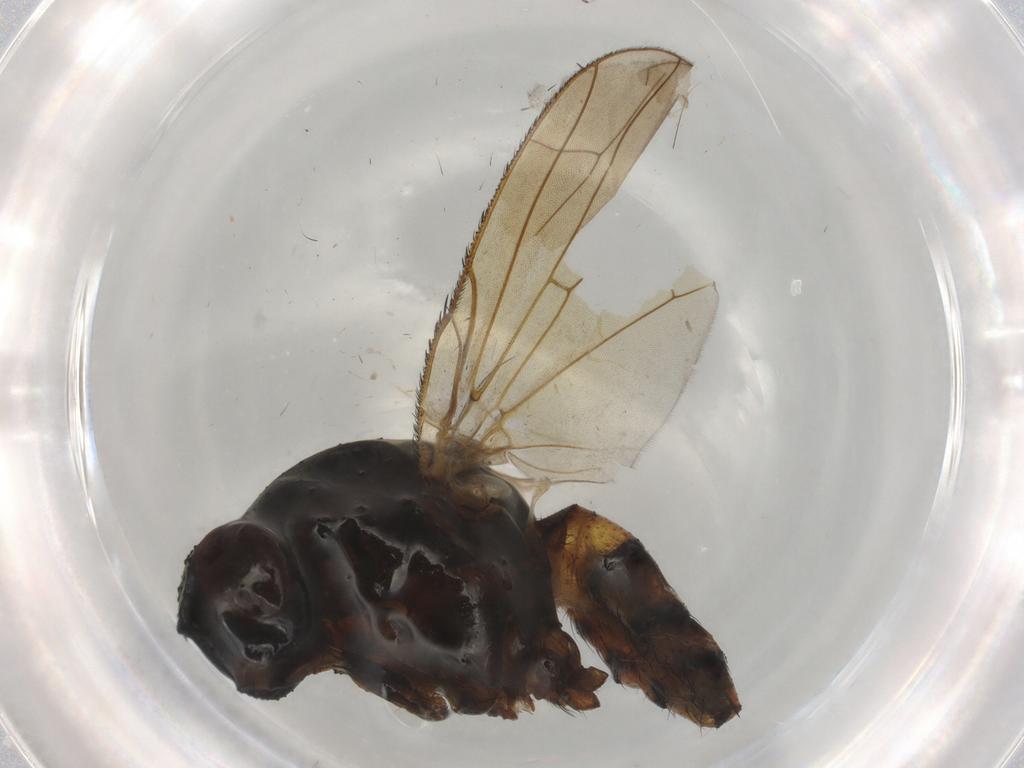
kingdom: Animalia
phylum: Arthropoda
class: Insecta
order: Diptera
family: Anthomyiidae
